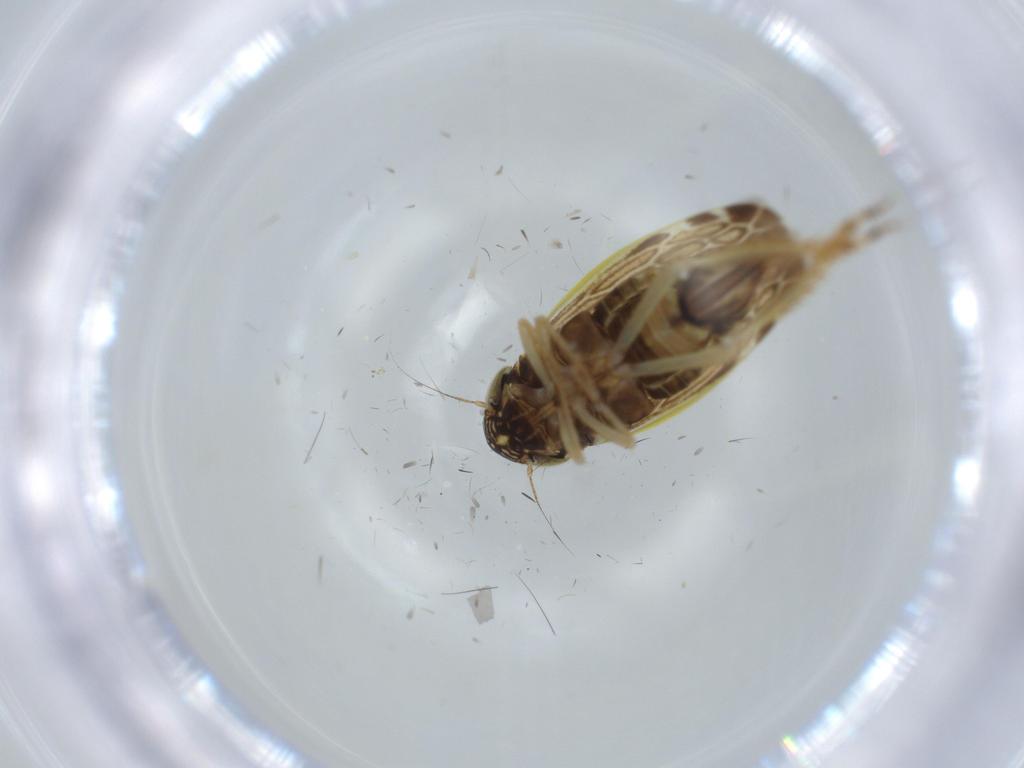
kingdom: Animalia
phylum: Arthropoda
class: Insecta
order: Hemiptera
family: Cicadellidae
